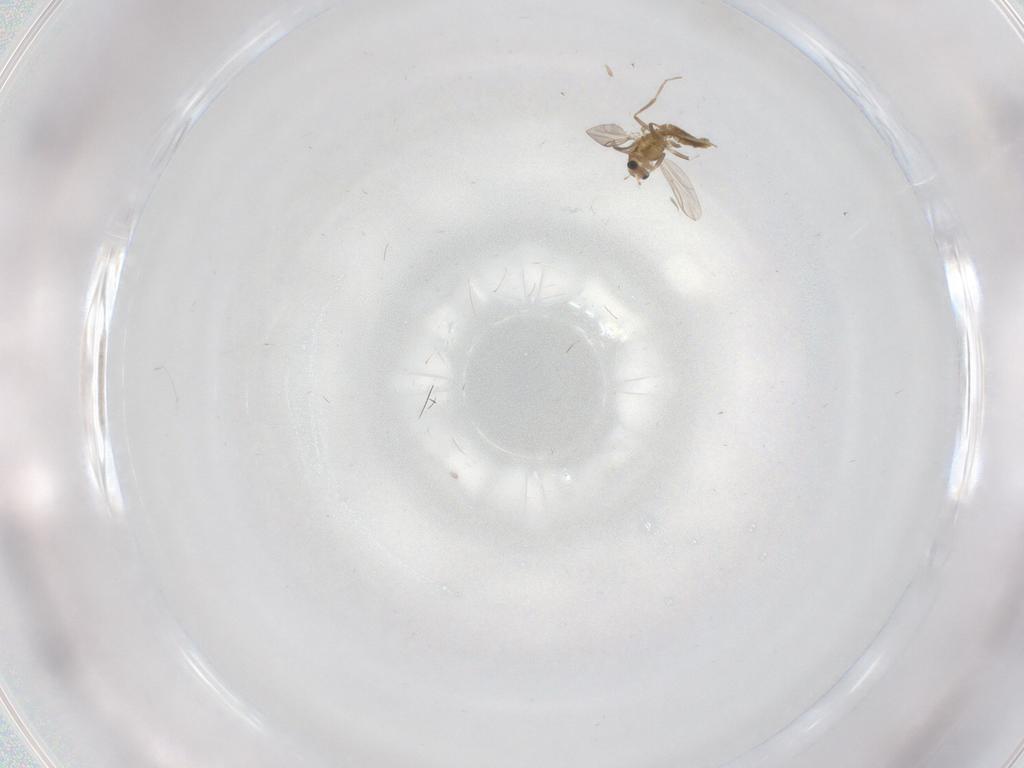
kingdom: Animalia
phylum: Arthropoda
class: Insecta
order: Diptera
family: Chironomidae
